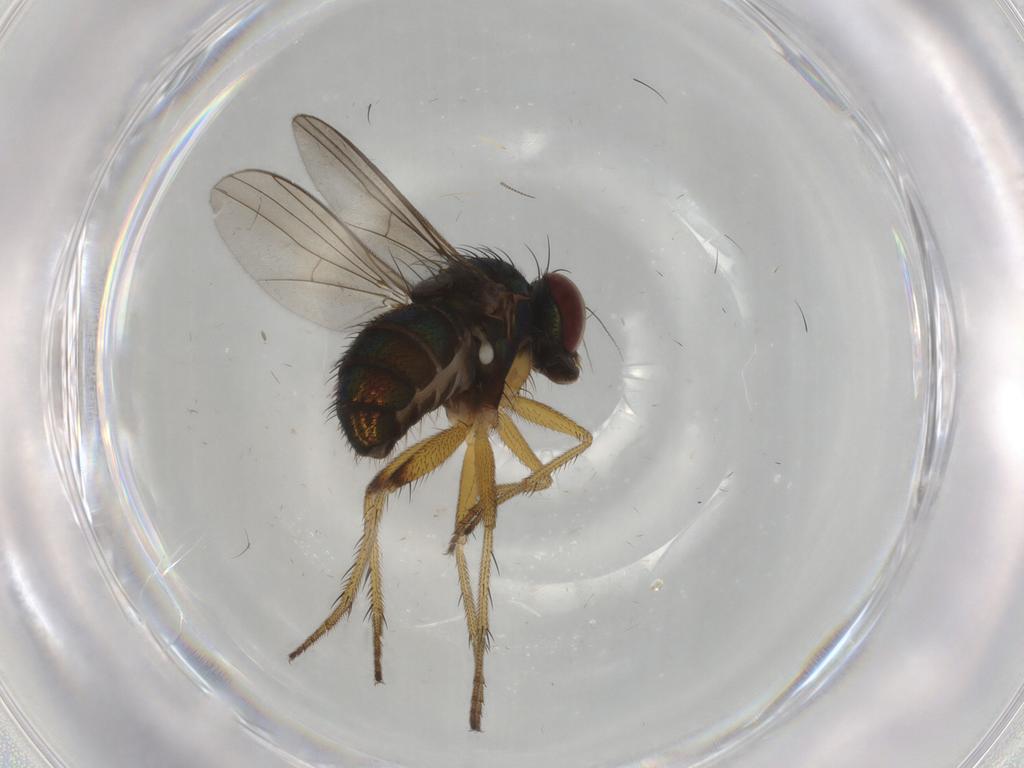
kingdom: Animalia
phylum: Arthropoda
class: Insecta
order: Diptera
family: Dolichopodidae
